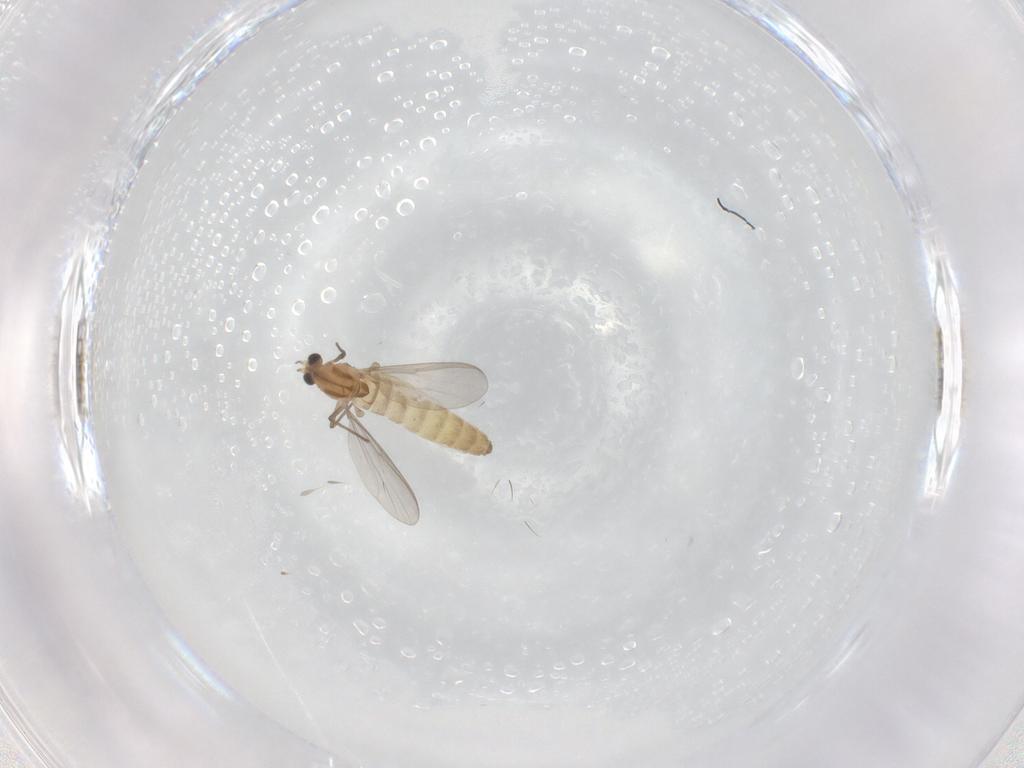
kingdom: Animalia
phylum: Arthropoda
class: Insecta
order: Diptera
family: Chironomidae
